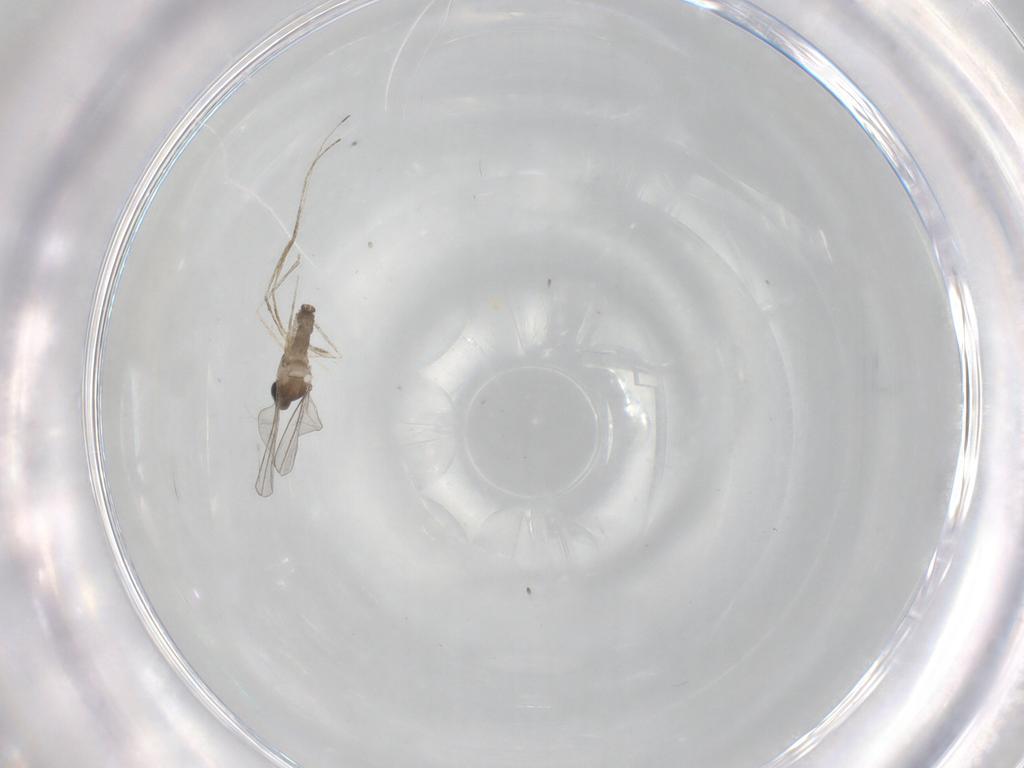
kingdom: Animalia
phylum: Arthropoda
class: Insecta
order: Diptera
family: Cecidomyiidae
